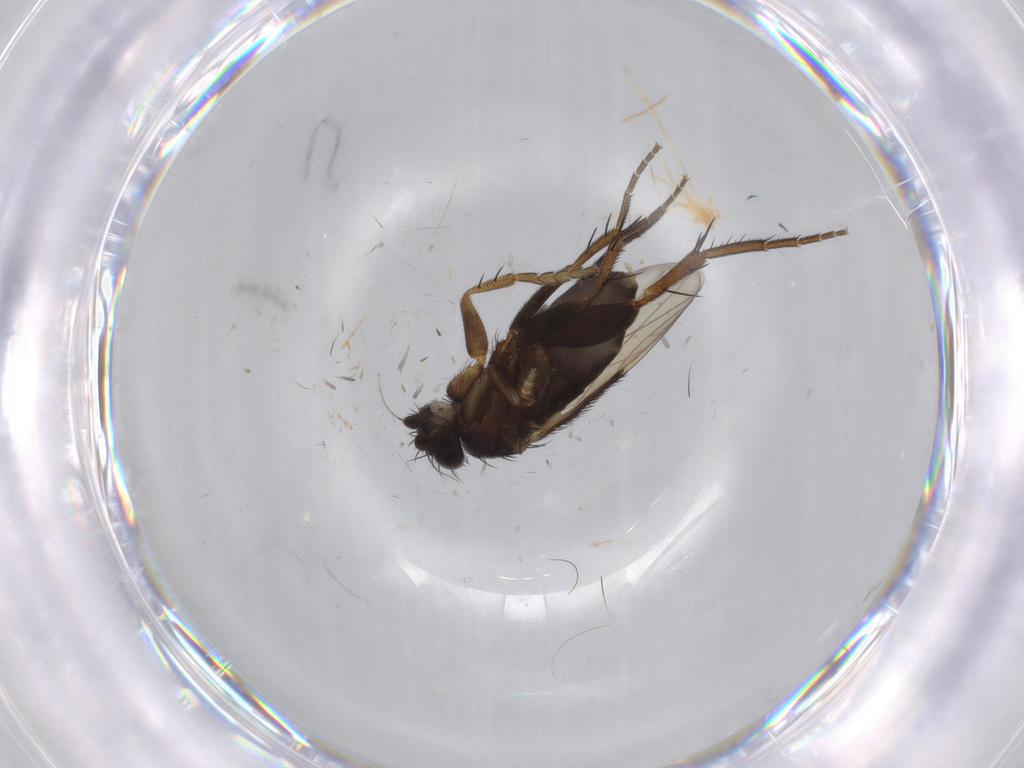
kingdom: Animalia
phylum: Arthropoda
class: Insecta
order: Diptera
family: Phoridae
